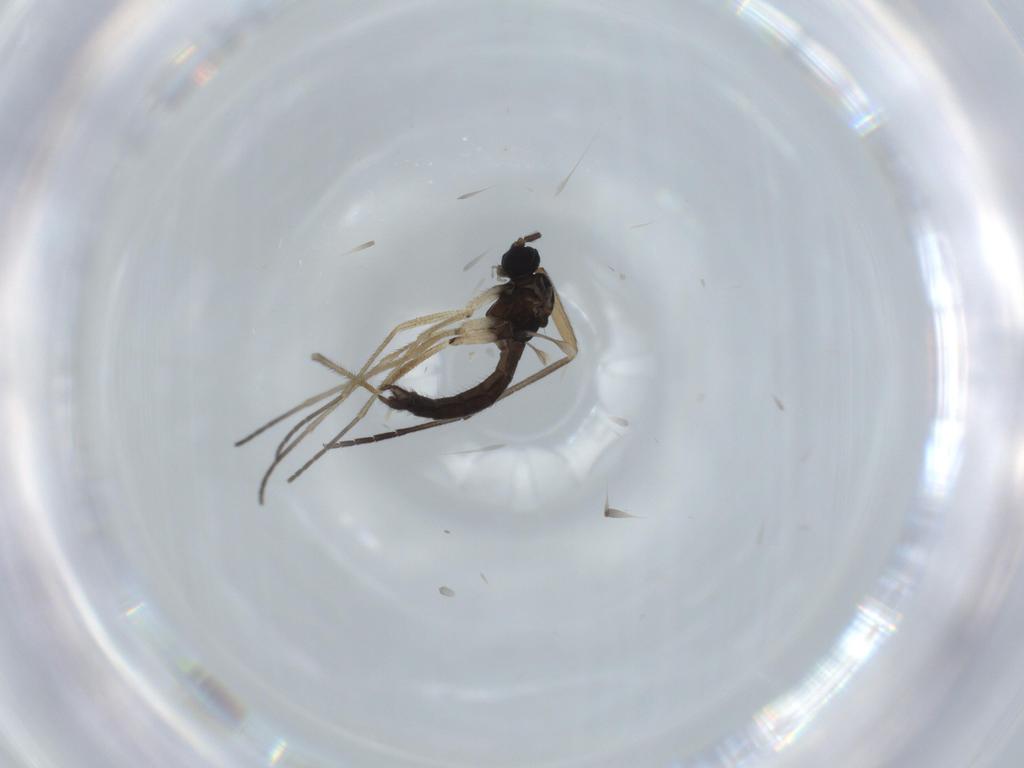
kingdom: Animalia
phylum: Arthropoda
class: Insecta
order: Diptera
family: Sciaridae
